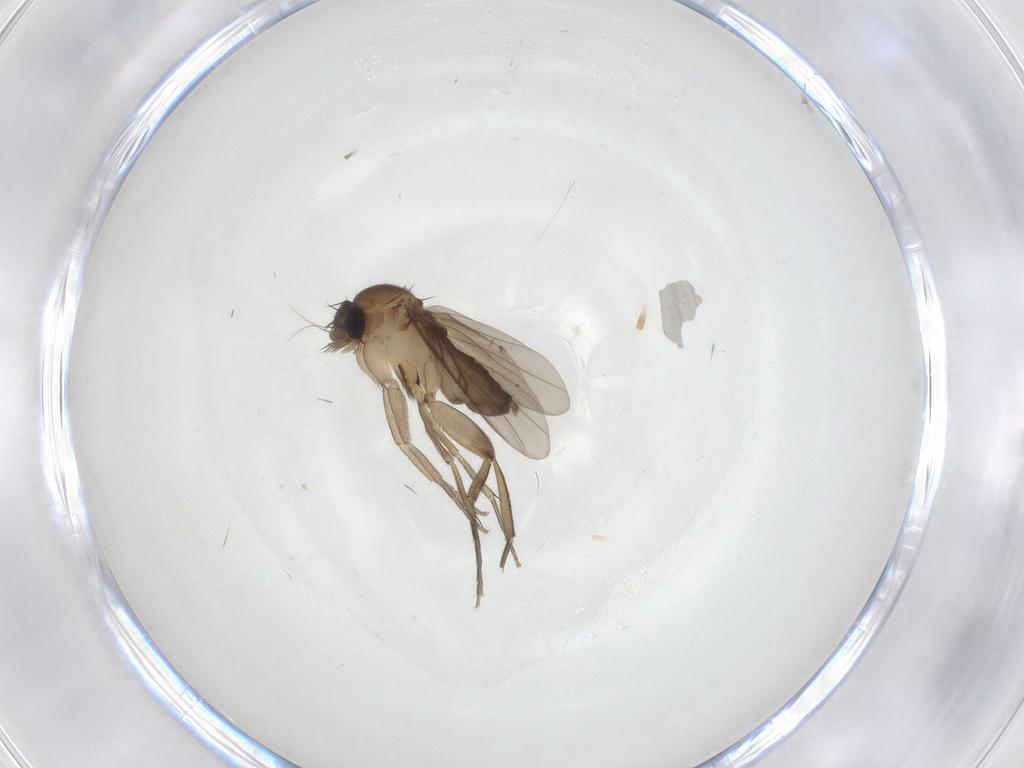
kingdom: Animalia
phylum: Arthropoda
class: Insecta
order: Diptera
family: Phoridae
